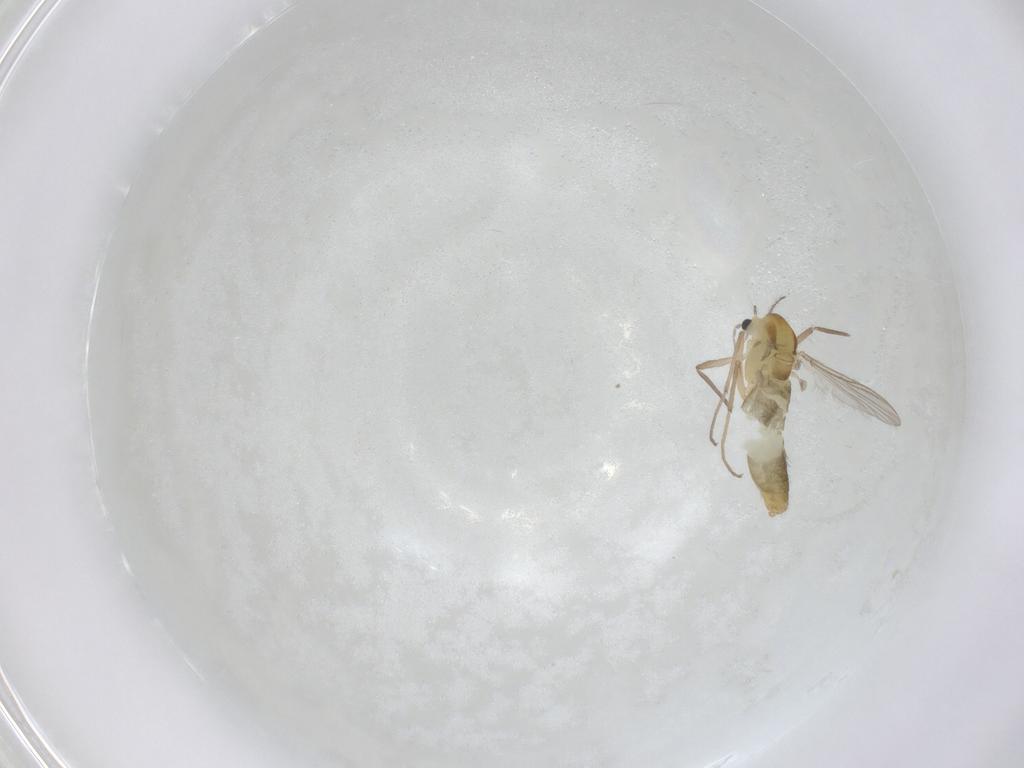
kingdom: Animalia
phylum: Arthropoda
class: Insecta
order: Diptera
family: Chironomidae
